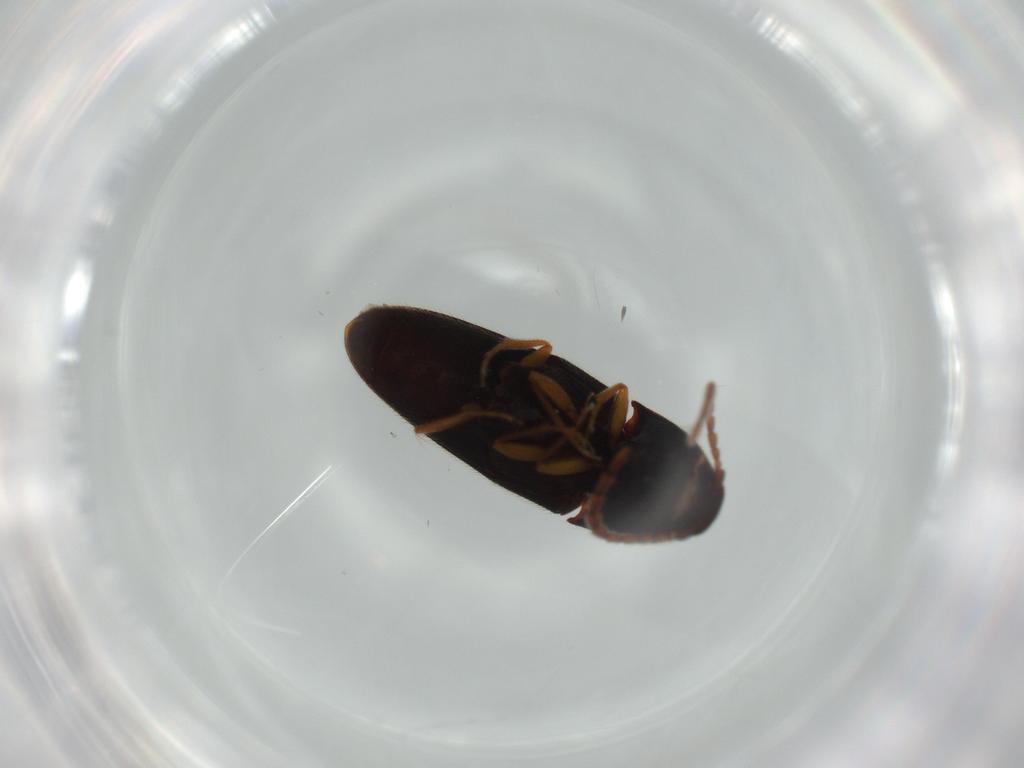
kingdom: Animalia
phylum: Arthropoda
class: Insecta
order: Coleoptera
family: Elateridae
